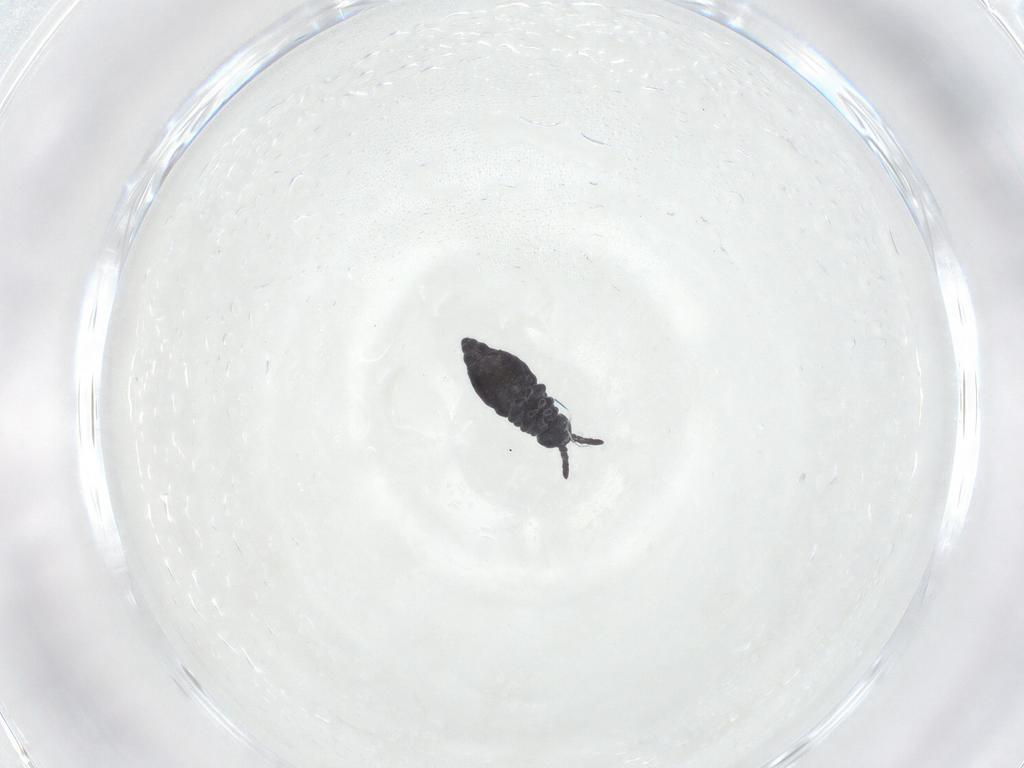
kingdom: Animalia
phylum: Arthropoda
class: Collembola
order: Poduromorpha
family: Hypogastruridae
